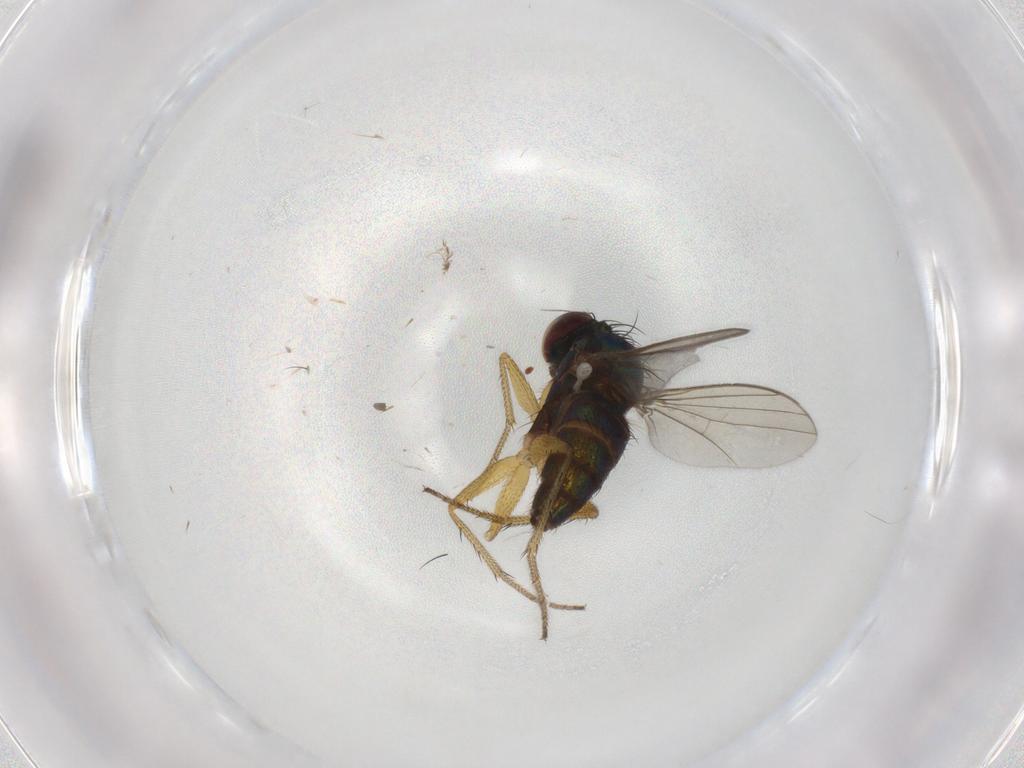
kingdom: Animalia
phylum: Arthropoda
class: Insecta
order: Diptera
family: Dolichopodidae
